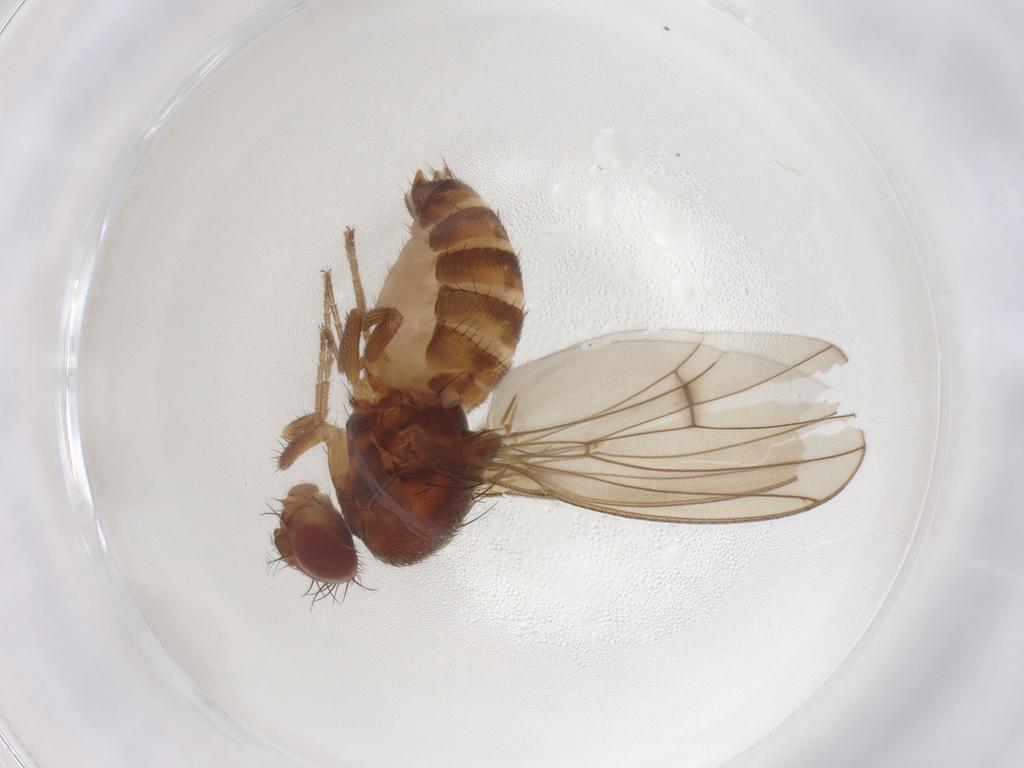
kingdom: Animalia
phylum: Arthropoda
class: Insecta
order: Diptera
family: Drosophilidae
